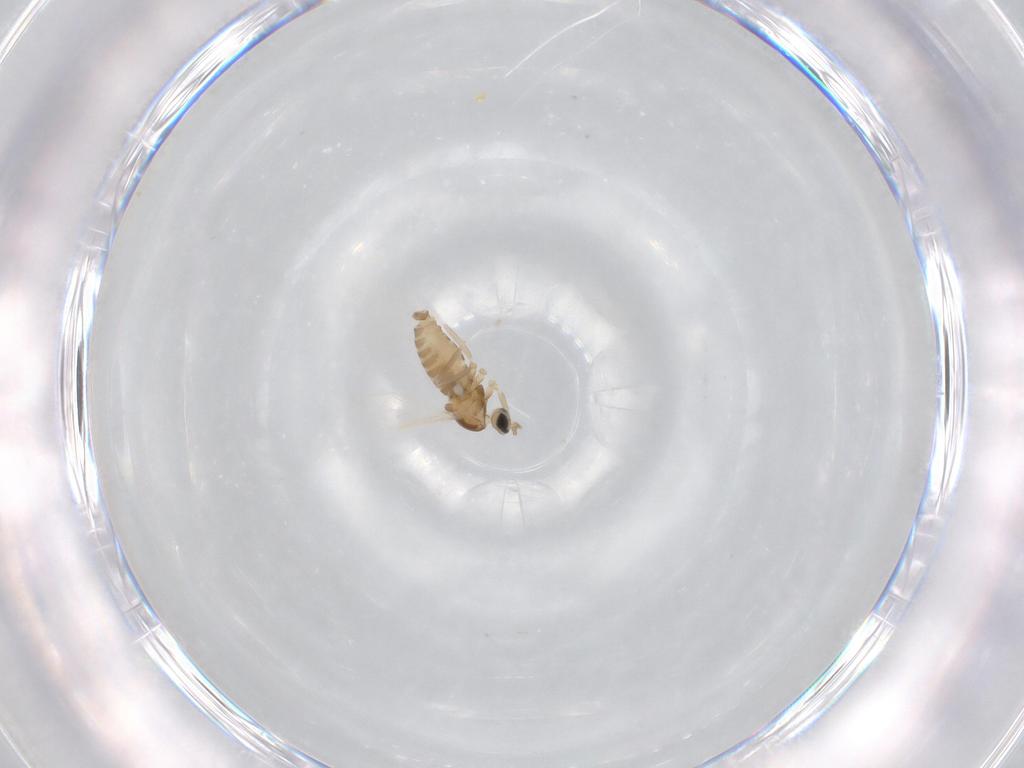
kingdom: Animalia
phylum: Arthropoda
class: Insecta
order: Diptera
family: Cecidomyiidae
